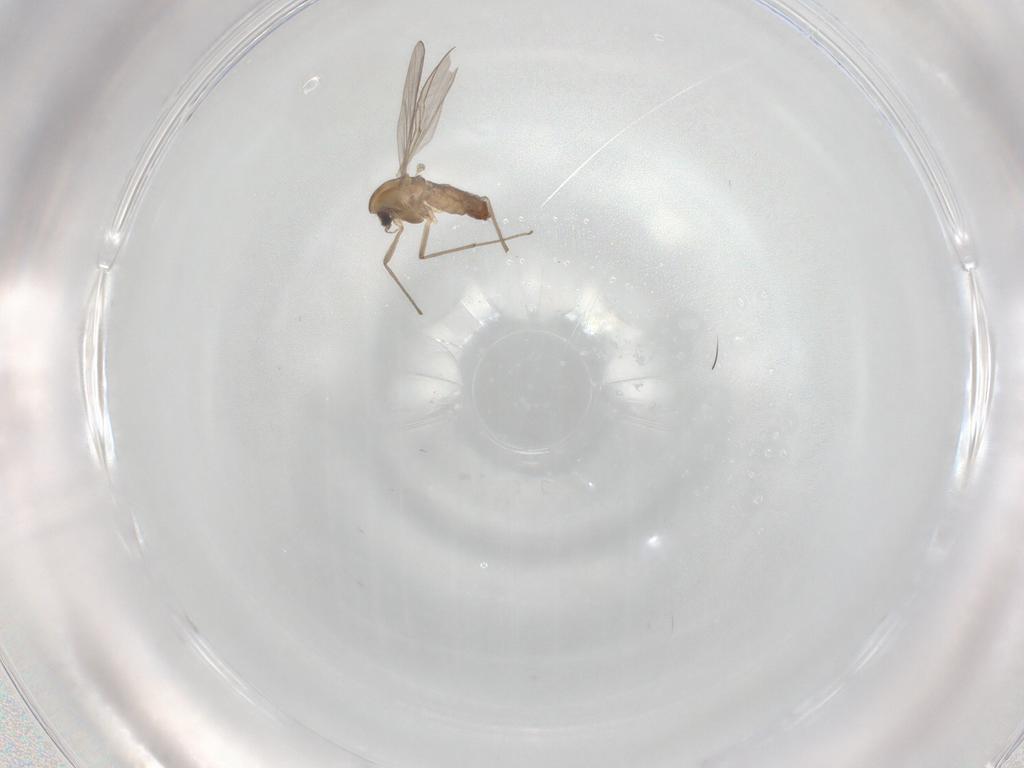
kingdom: Animalia
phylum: Arthropoda
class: Insecta
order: Diptera
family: Chironomidae
